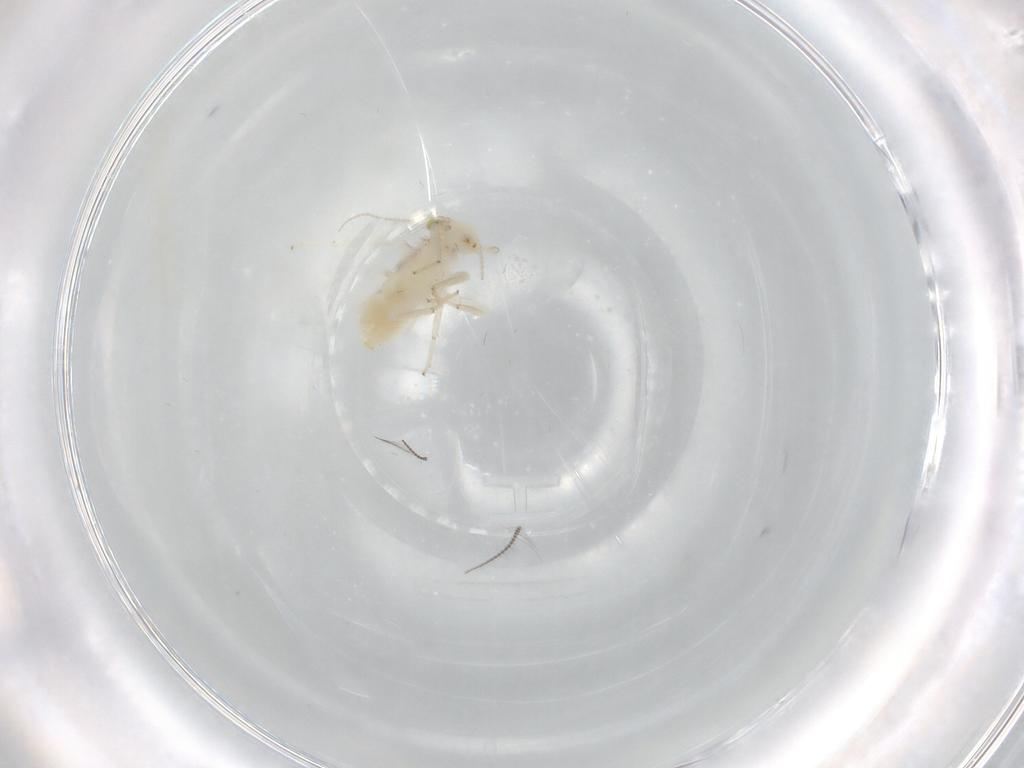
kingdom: Animalia
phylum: Arthropoda
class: Insecta
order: Psocodea
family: Lepidopsocidae
